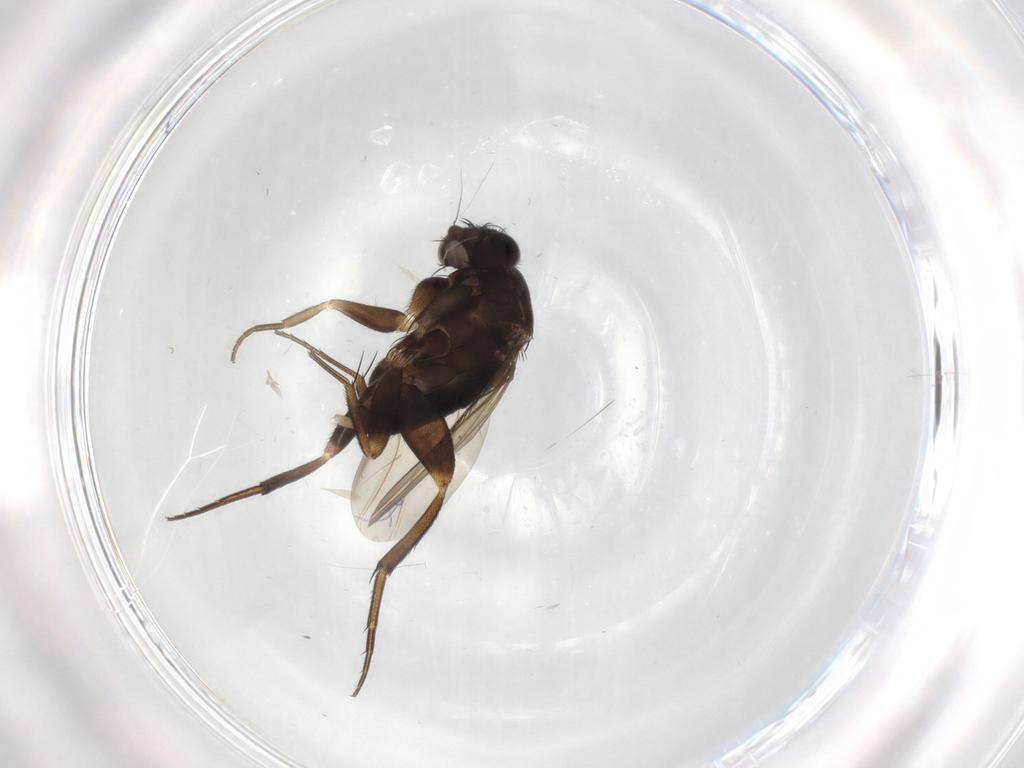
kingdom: Animalia
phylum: Arthropoda
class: Insecta
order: Diptera
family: Phoridae
